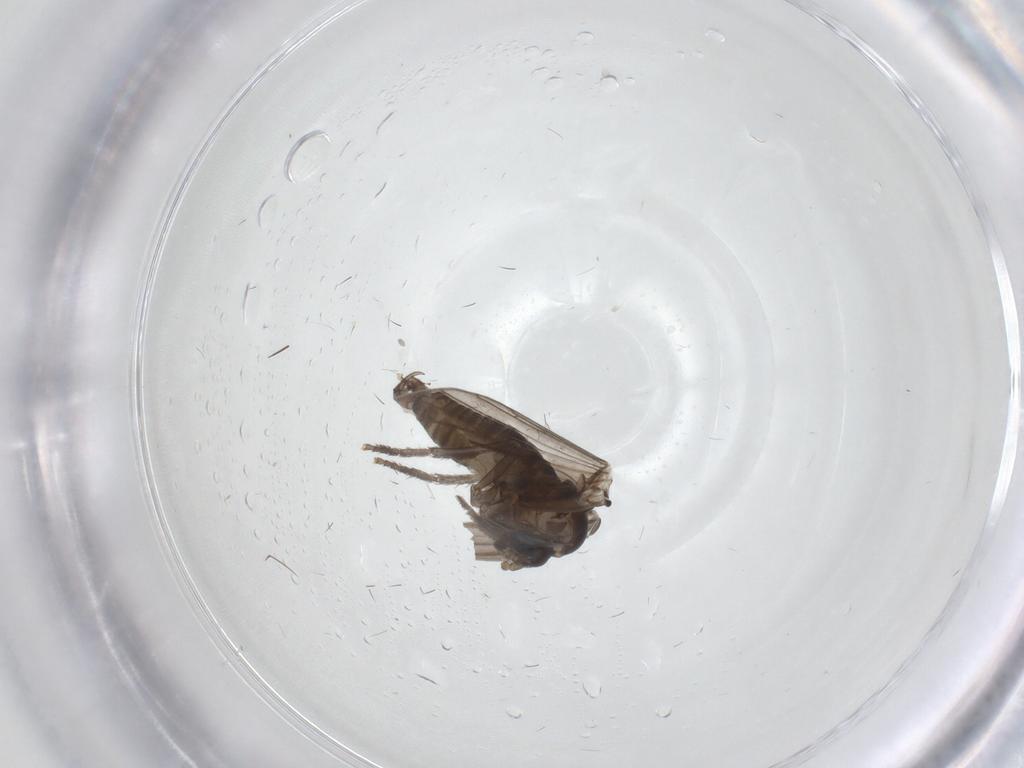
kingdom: Animalia
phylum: Arthropoda
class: Insecta
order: Diptera
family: Psychodidae
